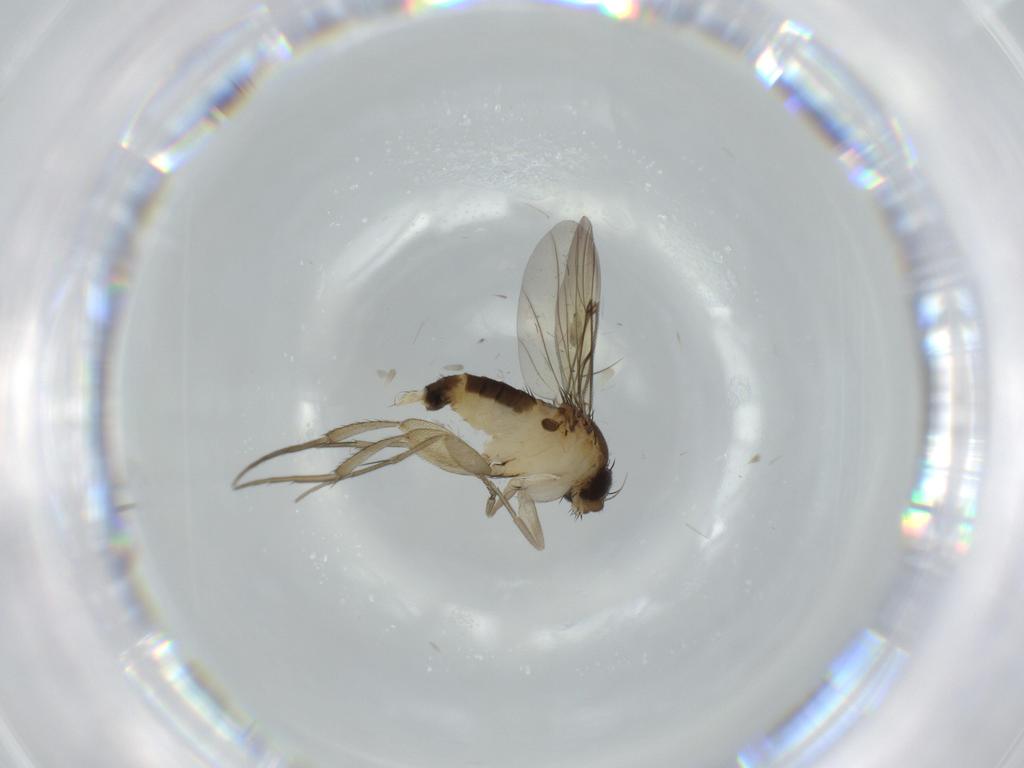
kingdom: Animalia
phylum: Arthropoda
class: Insecta
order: Diptera
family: Phoridae
